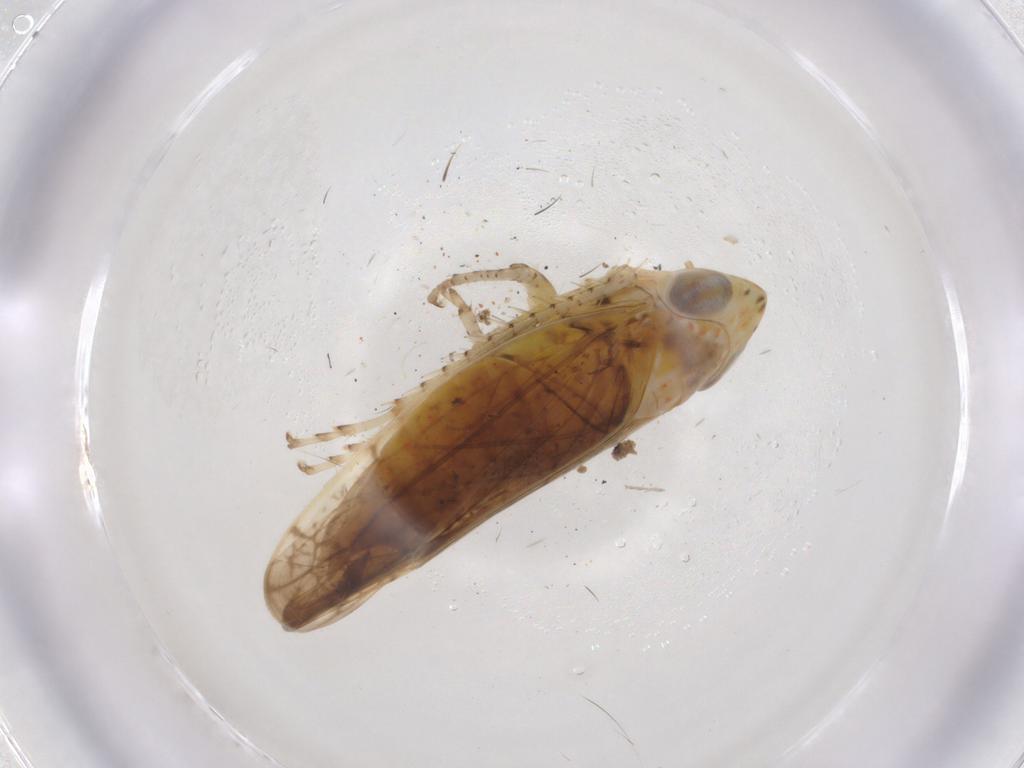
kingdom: Animalia
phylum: Arthropoda
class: Insecta
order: Hemiptera
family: Cicadellidae
